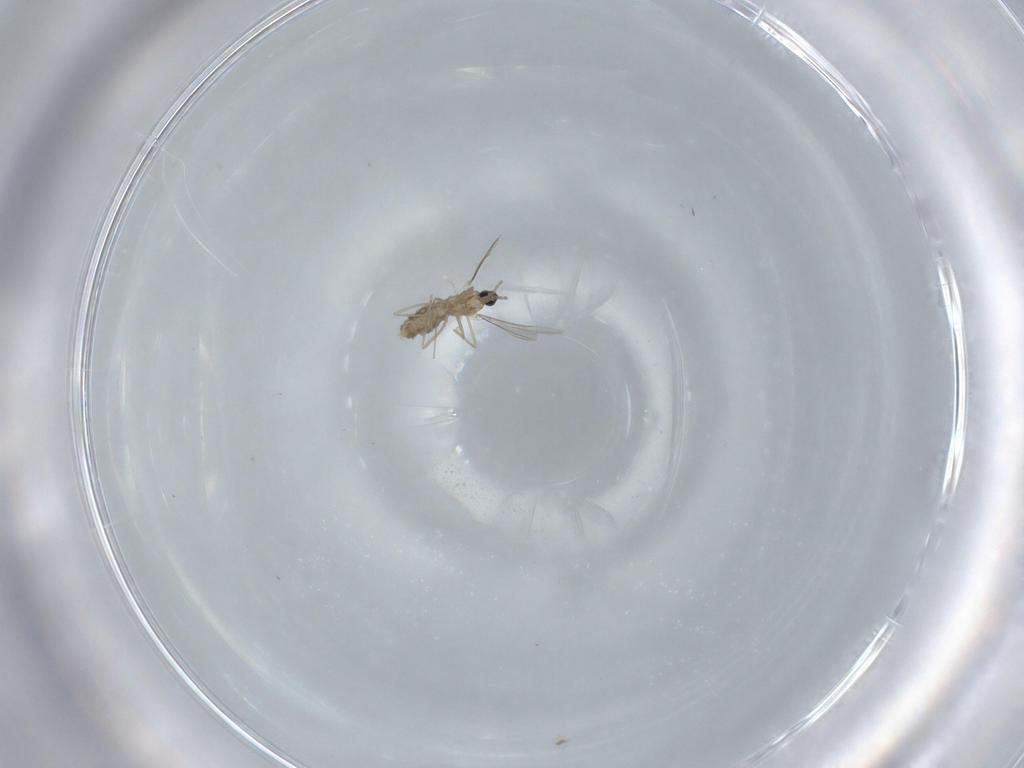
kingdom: Animalia
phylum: Arthropoda
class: Insecta
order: Diptera
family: Cecidomyiidae
